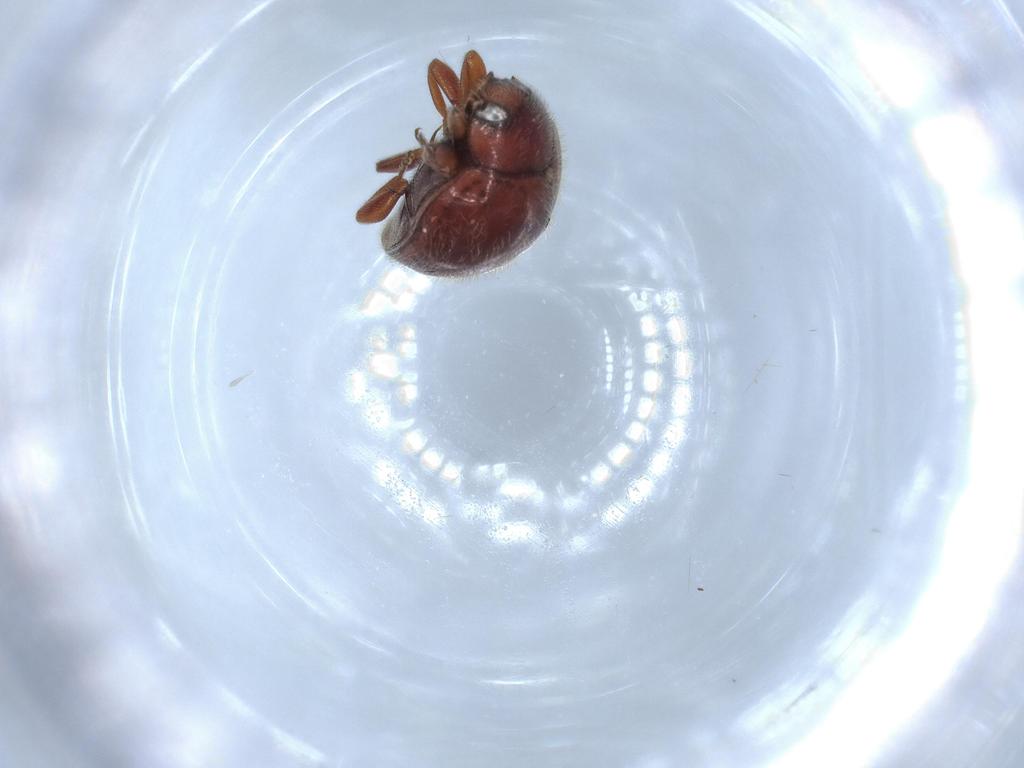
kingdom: Animalia
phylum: Arthropoda
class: Insecta
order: Coleoptera
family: Coccinellidae
